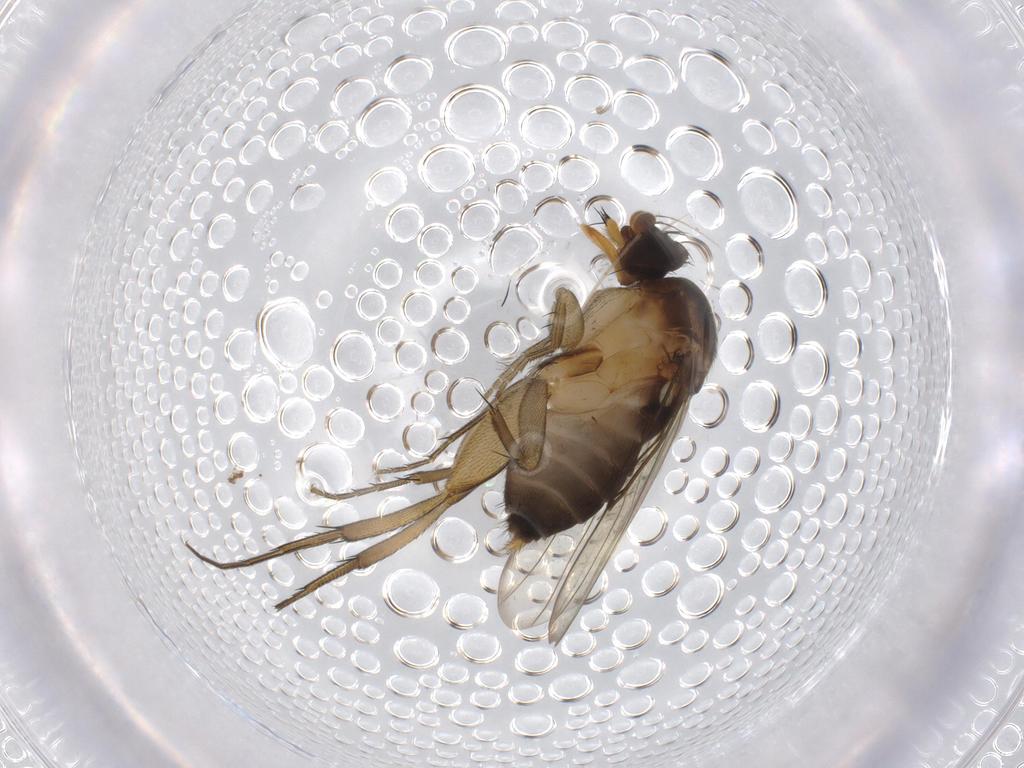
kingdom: Animalia
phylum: Arthropoda
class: Insecta
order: Diptera
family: Phoridae
